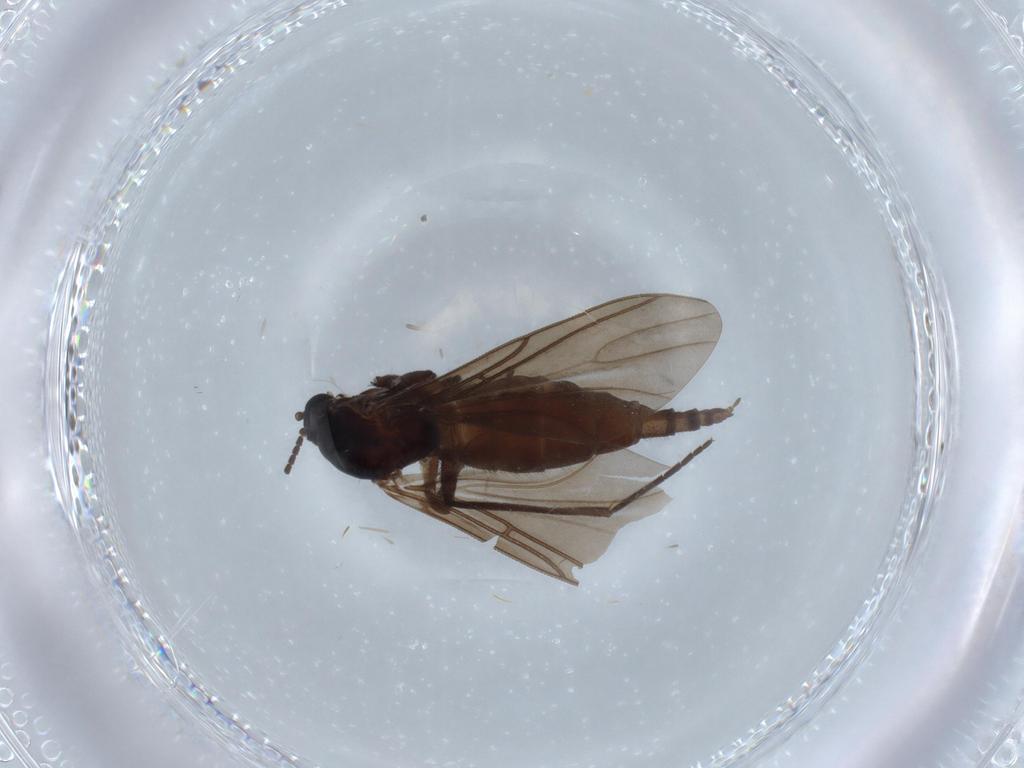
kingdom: Animalia
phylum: Arthropoda
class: Insecta
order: Diptera
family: Sciaridae
